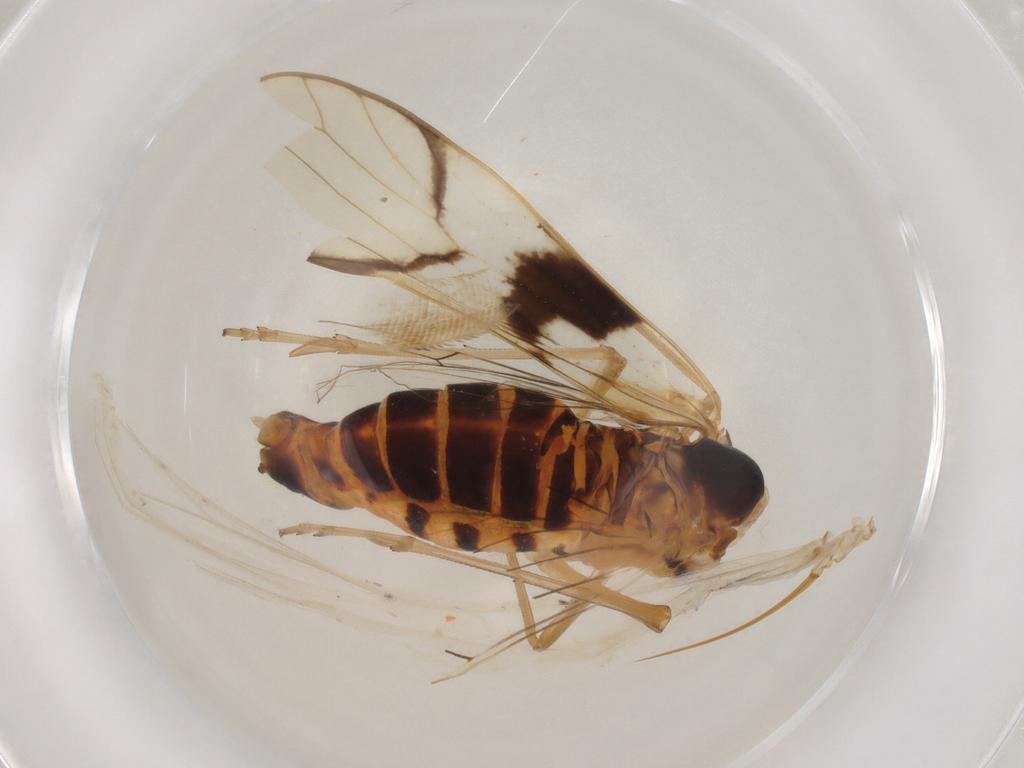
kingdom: Animalia
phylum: Arthropoda
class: Insecta
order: Hemiptera
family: Delphacidae
